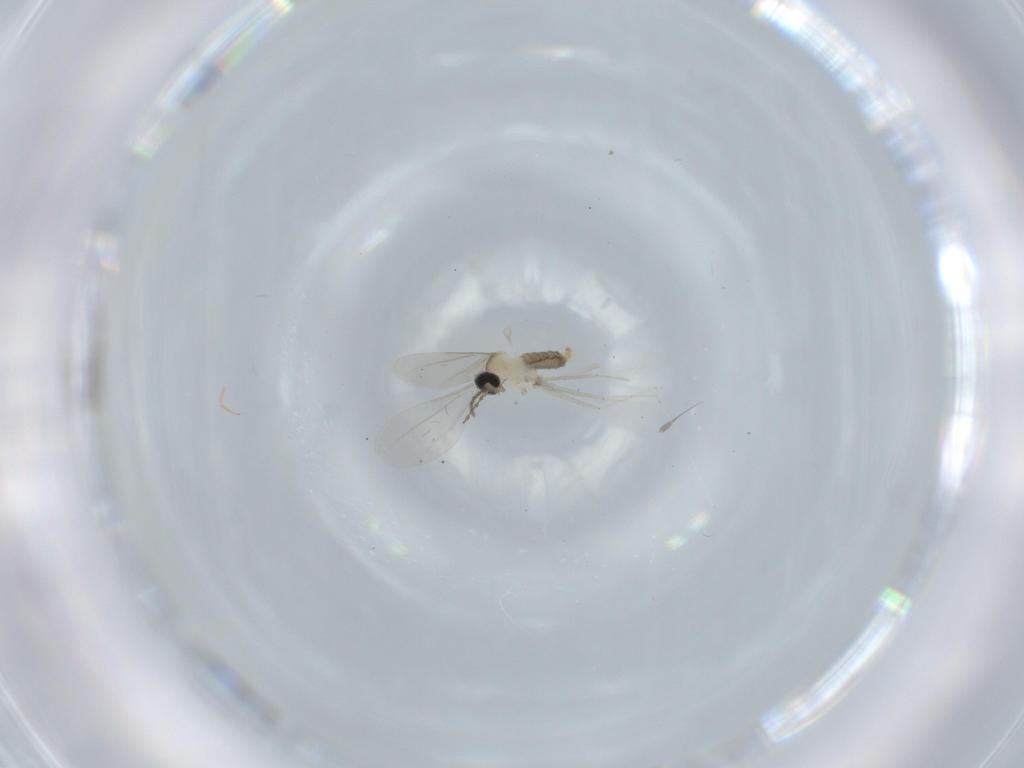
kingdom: Animalia
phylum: Arthropoda
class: Insecta
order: Diptera
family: Cecidomyiidae
